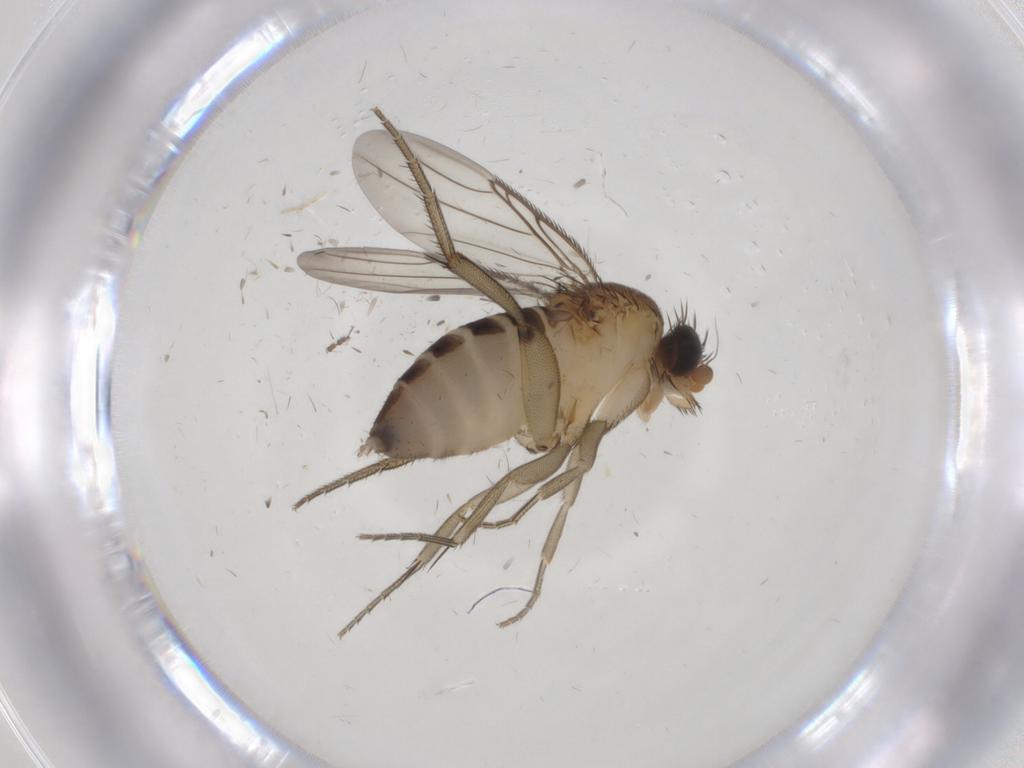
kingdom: Animalia
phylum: Arthropoda
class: Insecta
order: Diptera
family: Phoridae
